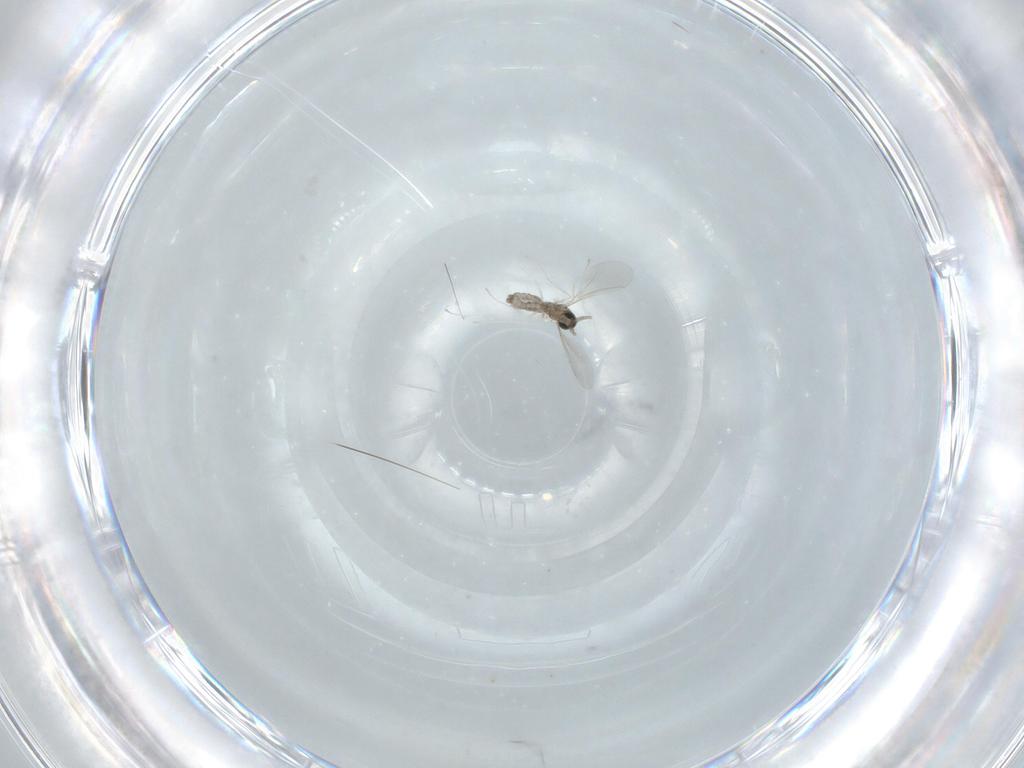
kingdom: Animalia
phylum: Arthropoda
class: Insecta
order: Diptera
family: Cecidomyiidae
